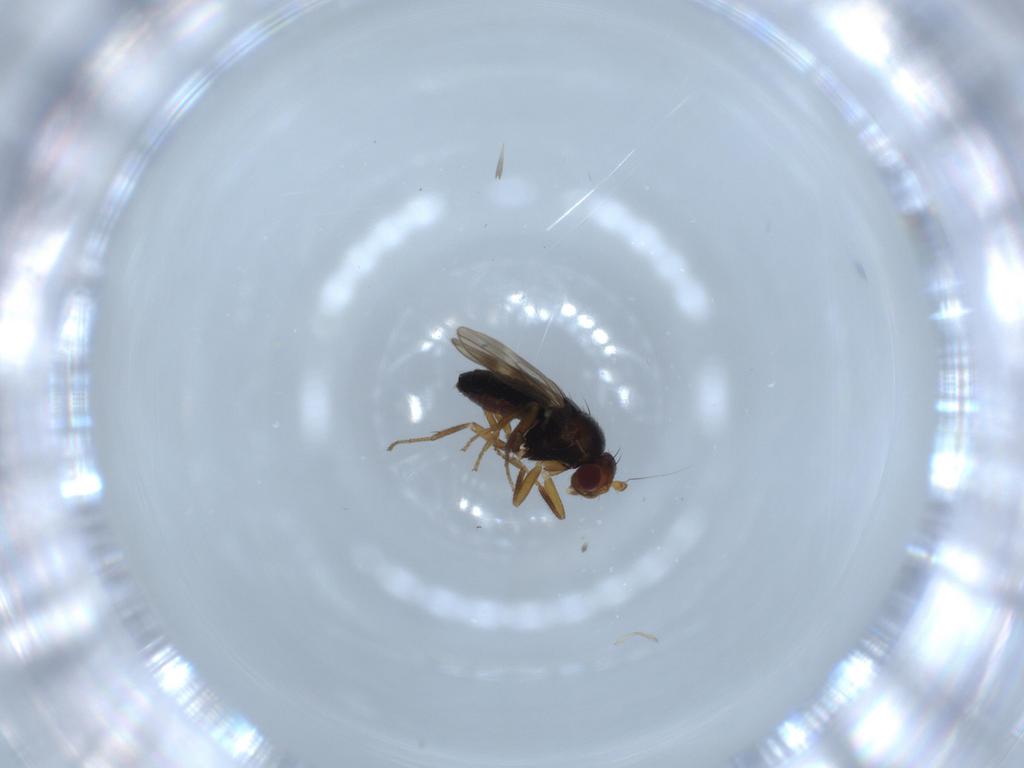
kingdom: Animalia
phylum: Arthropoda
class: Insecta
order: Diptera
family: Sphaeroceridae
